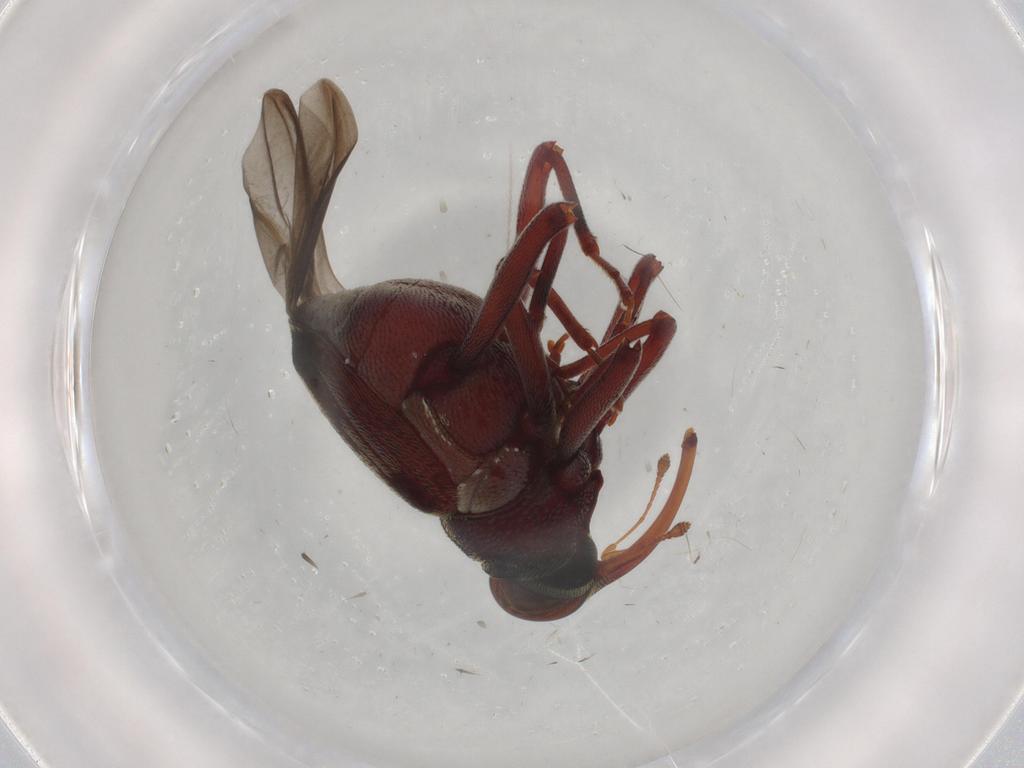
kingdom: Animalia
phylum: Arthropoda
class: Insecta
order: Coleoptera
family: Curculionidae
